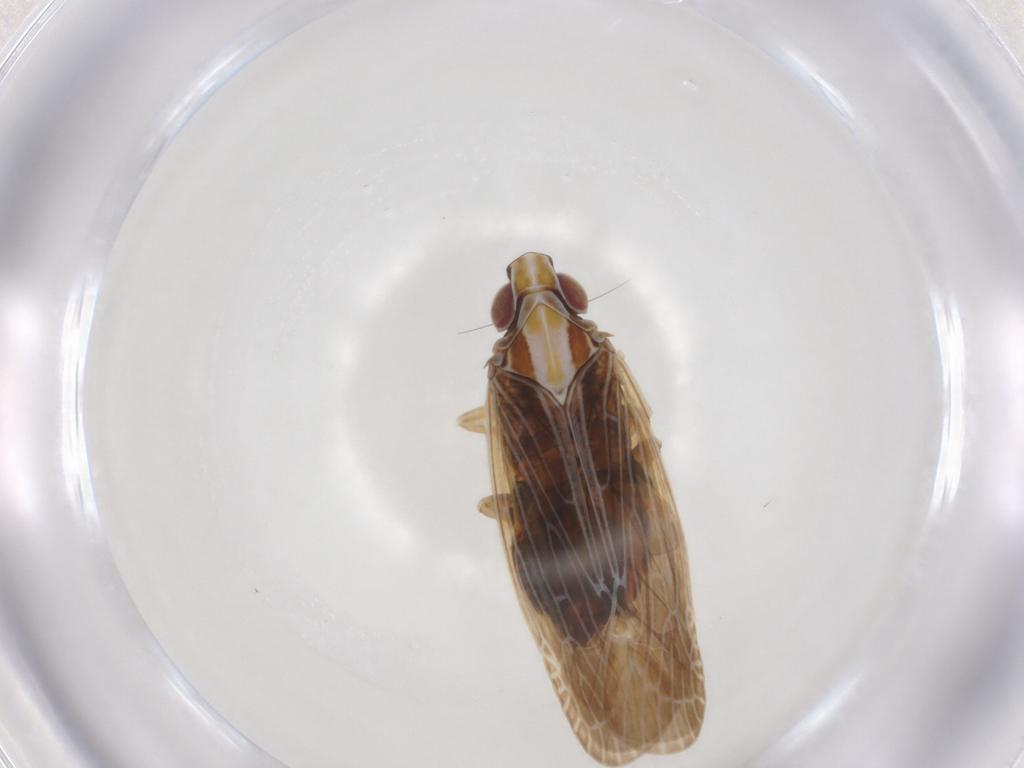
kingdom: Animalia
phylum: Arthropoda
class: Insecta
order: Hemiptera
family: Achilidae
